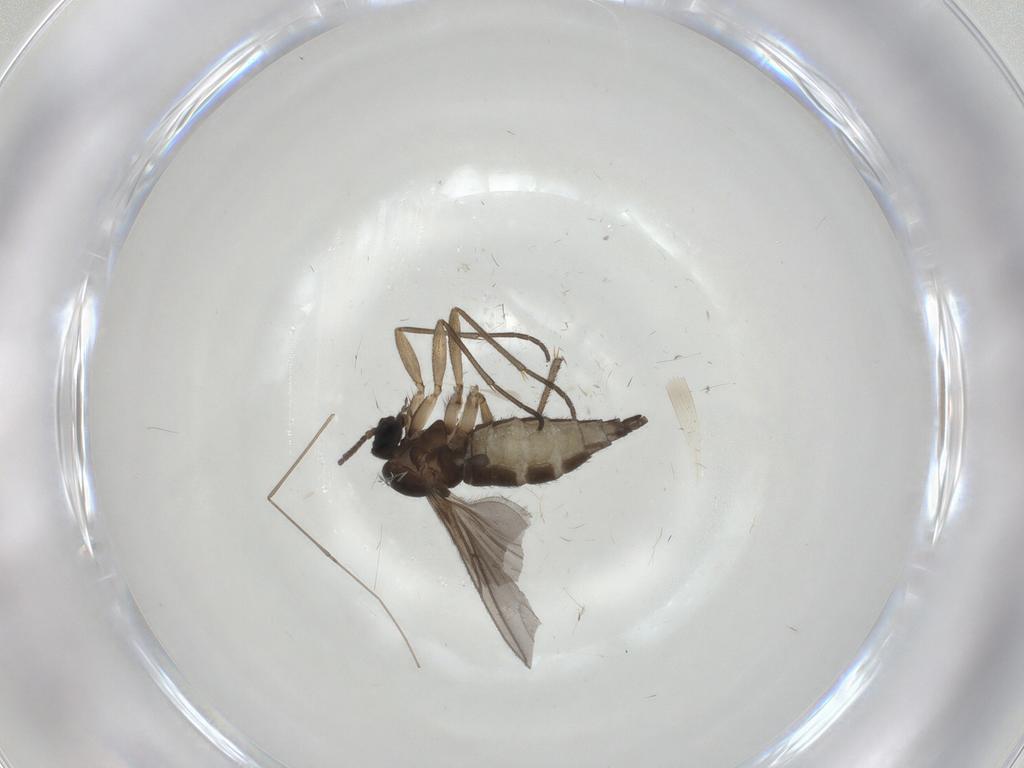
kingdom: Animalia
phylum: Arthropoda
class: Insecta
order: Diptera
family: Sciaridae
